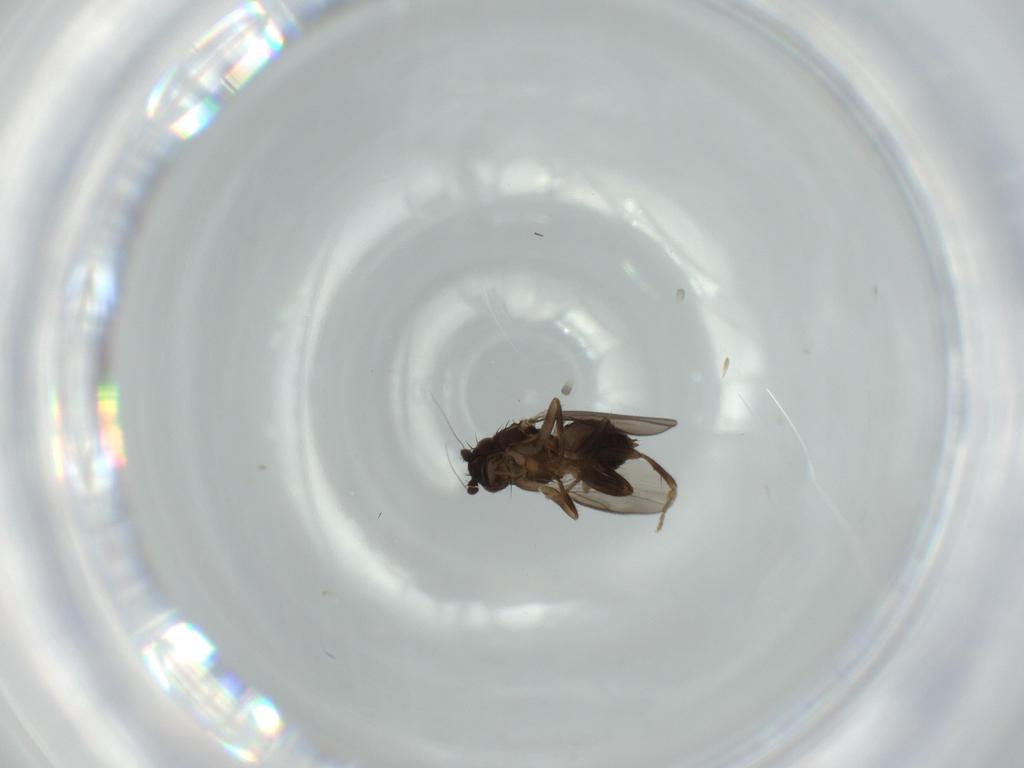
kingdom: Animalia
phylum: Arthropoda
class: Insecta
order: Diptera
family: Sphaeroceridae
